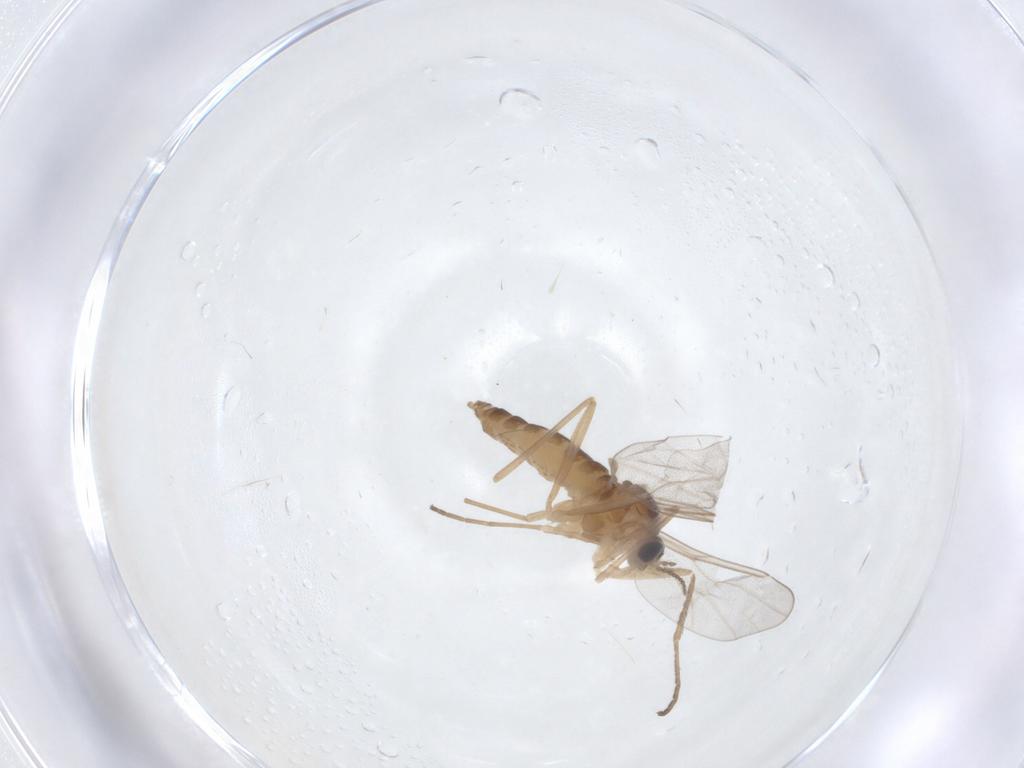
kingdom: Animalia
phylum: Arthropoda
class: Insecta
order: Diptera
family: Cecidomyiidae
